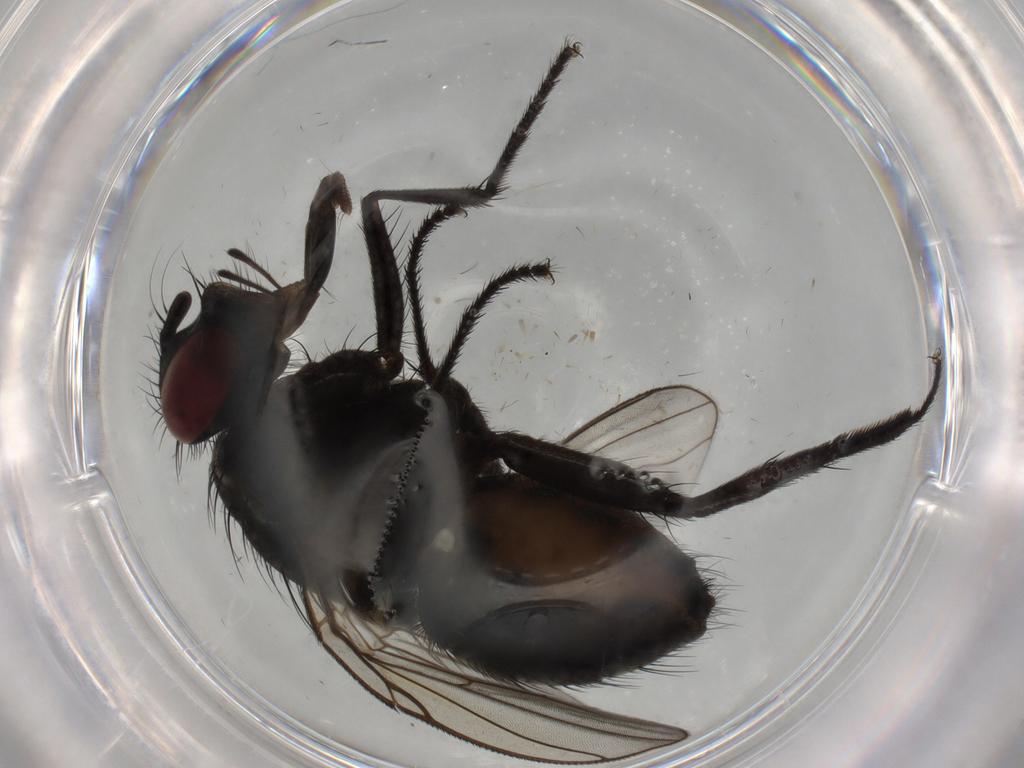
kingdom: Animalia
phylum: Arthropoda
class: Insecta
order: Diptera
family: Muscidae
